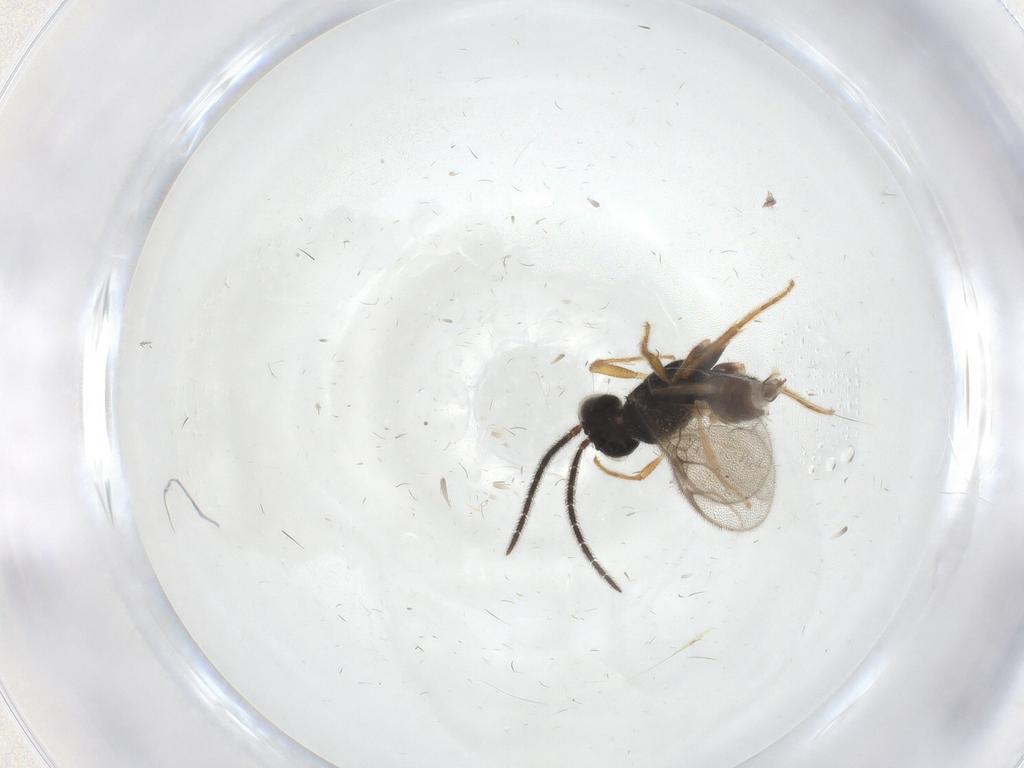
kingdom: Animalia
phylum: Arthropoda
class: Insecta
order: Hymenoptera
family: Dryinidae
